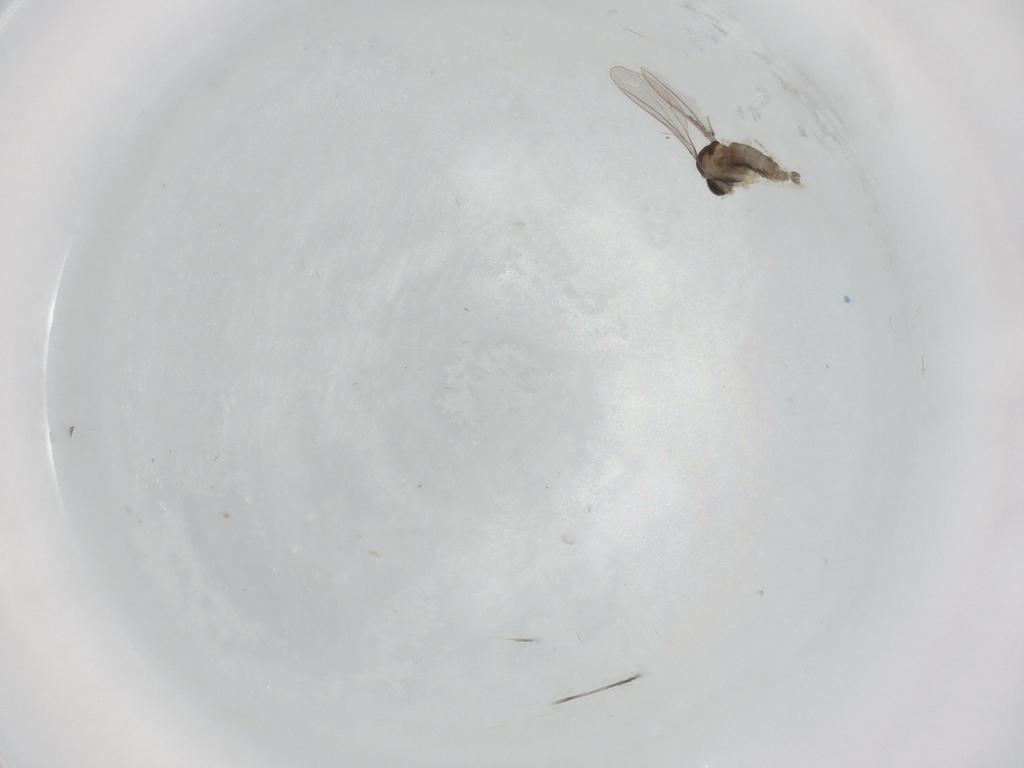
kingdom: Animalia
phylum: Arthropoda
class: Insecta
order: Diptera
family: Cecidomyiidae
